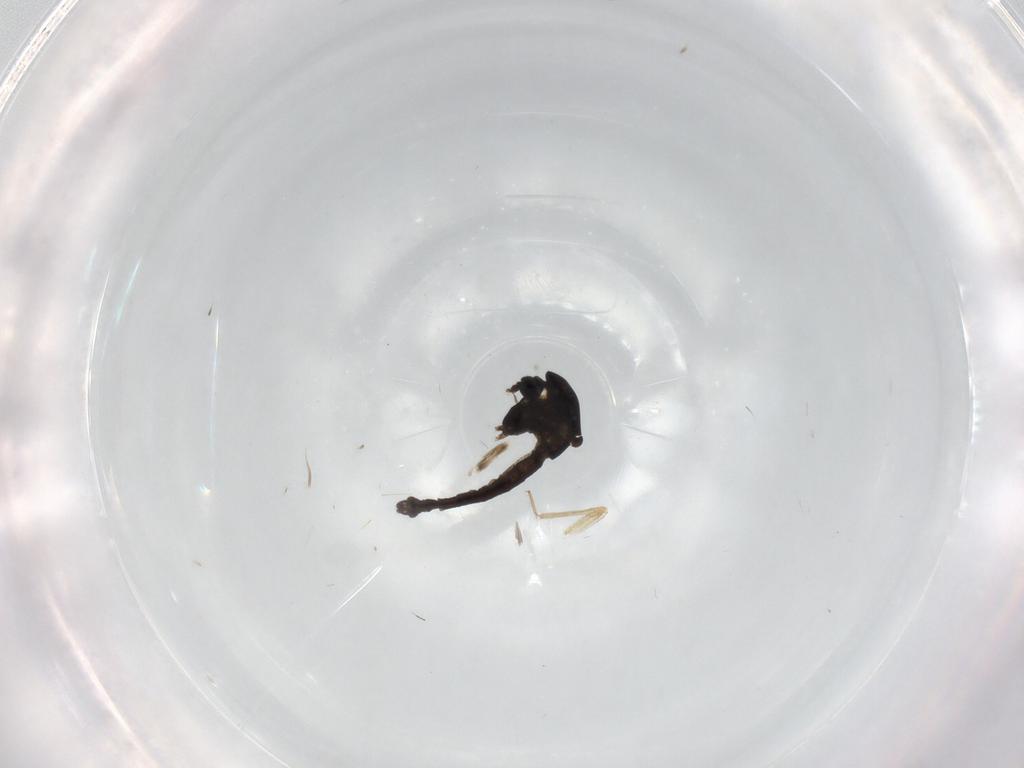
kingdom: Animalia
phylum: Arthropoda
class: Insecta
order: Diptera
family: Chironomidae
